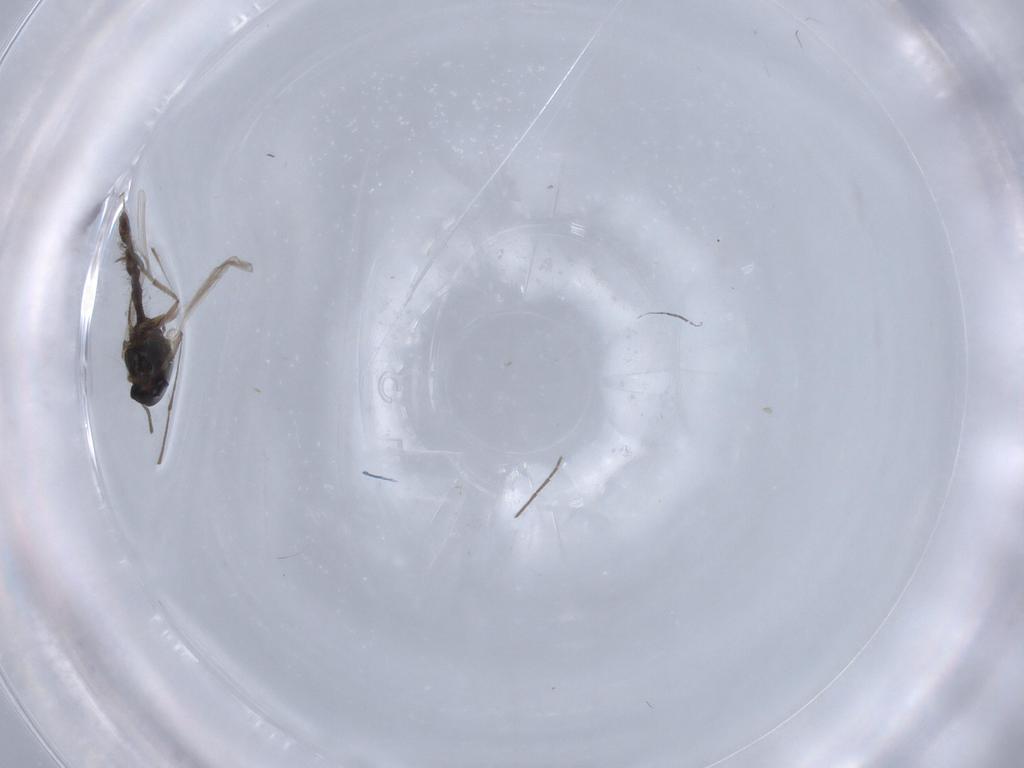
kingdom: Animalia
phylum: Arthropoda
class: Insecta
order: Diptera
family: Chironomidae
